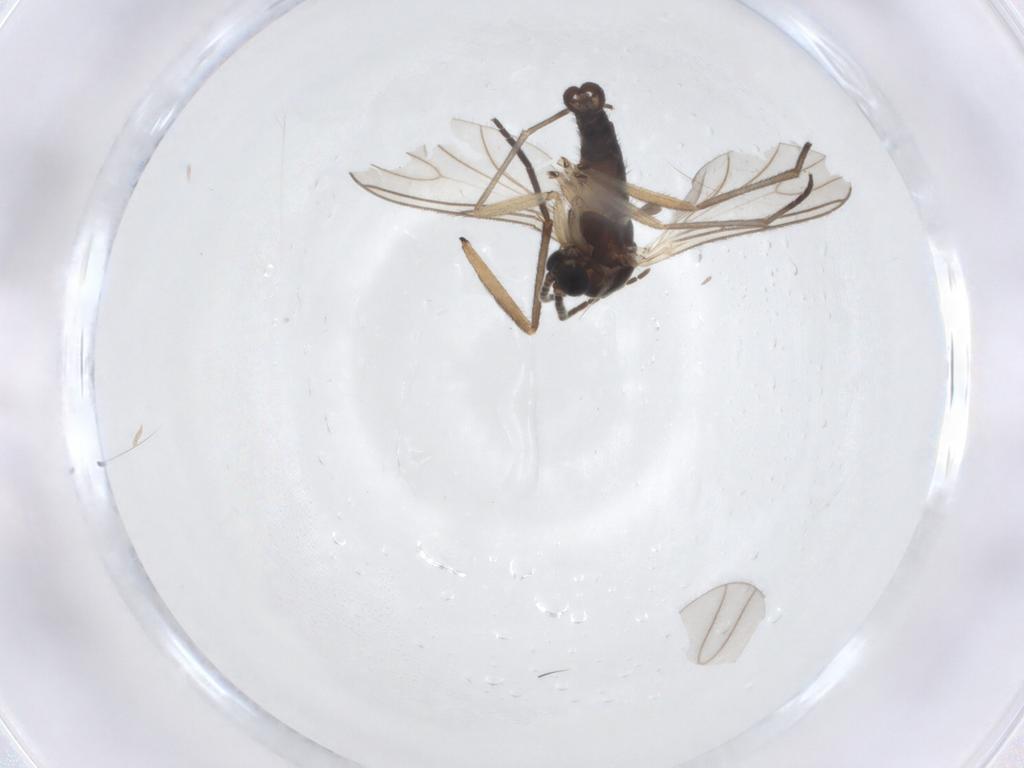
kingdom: Animalia
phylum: Arthropoda
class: Insecta
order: Diptera
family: Sciaridae
